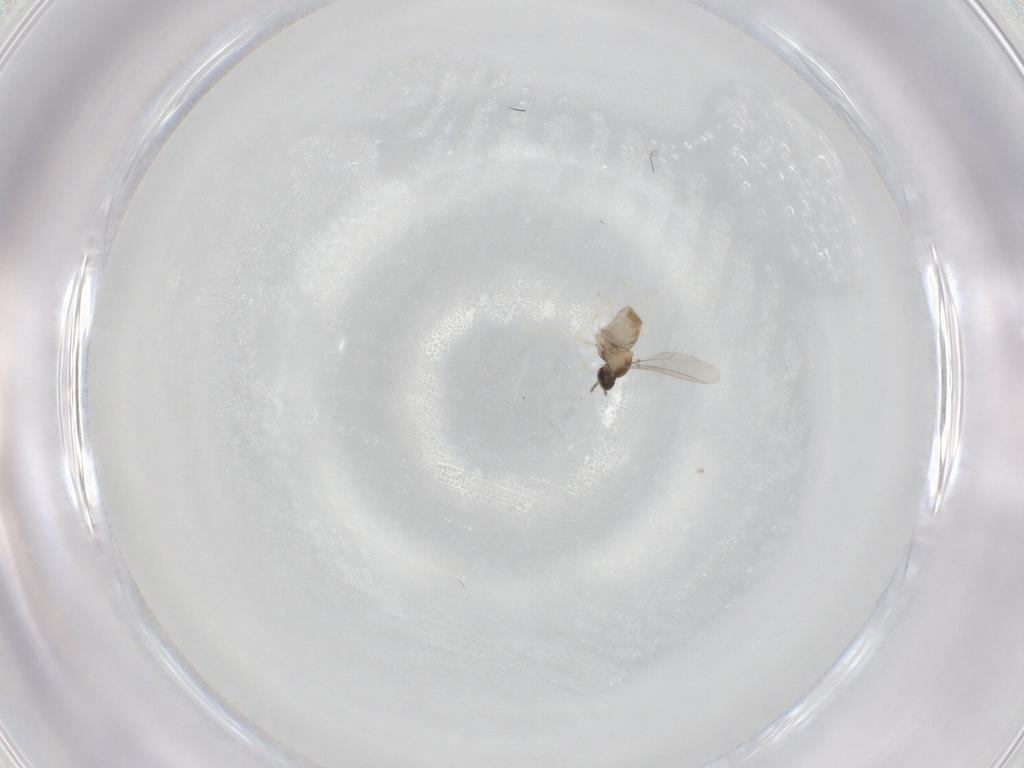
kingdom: Animalia
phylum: Arthropoda
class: Insecta
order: Diptera
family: Cecidomyiidae
